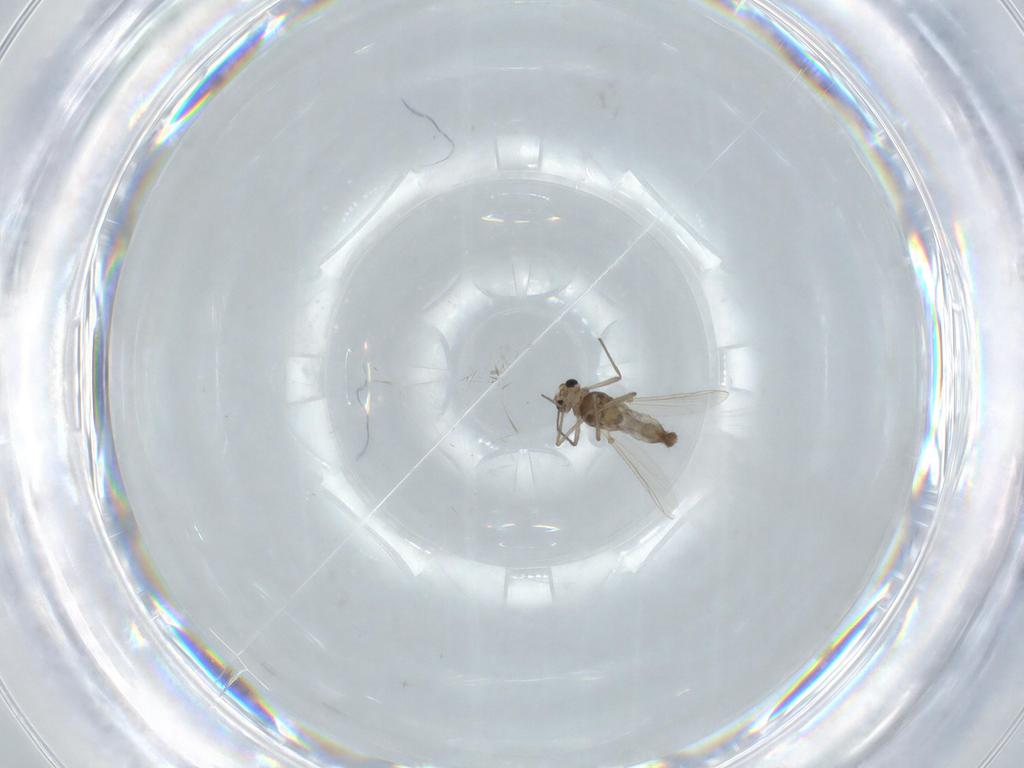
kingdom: Animalia
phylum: Arthropoda
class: Insecta
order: Diptera
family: Chironomidae
